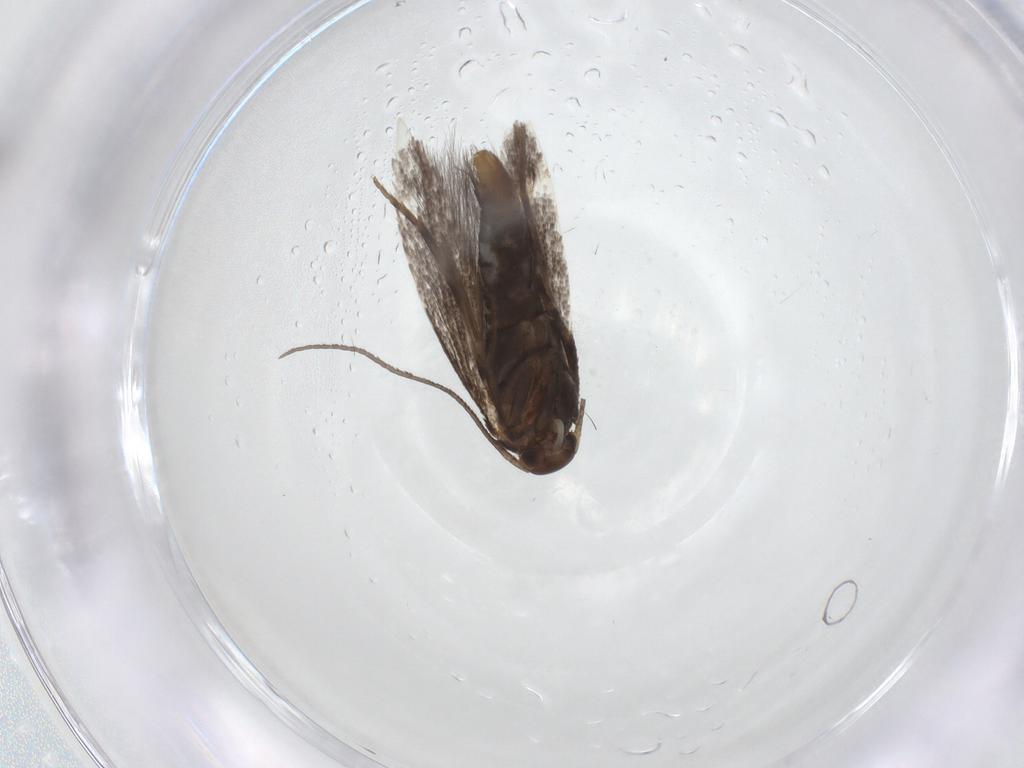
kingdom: Animalia
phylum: Arthropoda
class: Insecta
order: Lepidoptera
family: Elachistidae
